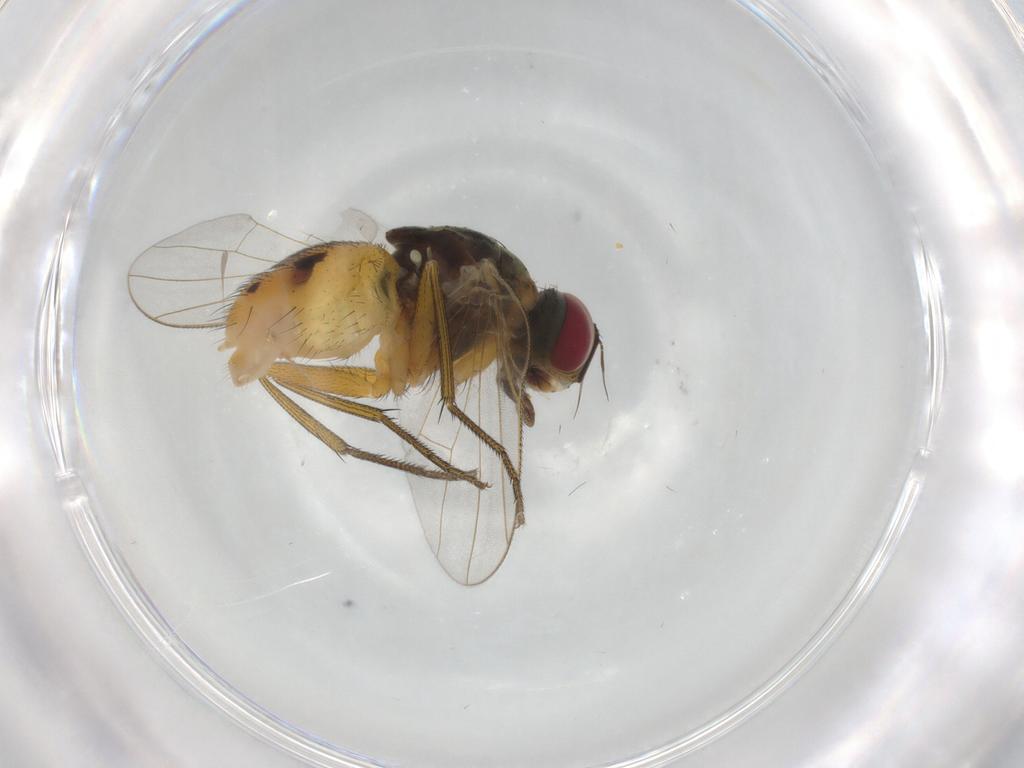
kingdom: Animalia
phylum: Arthropoda
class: Insecta
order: Diptera
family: Muscidae
